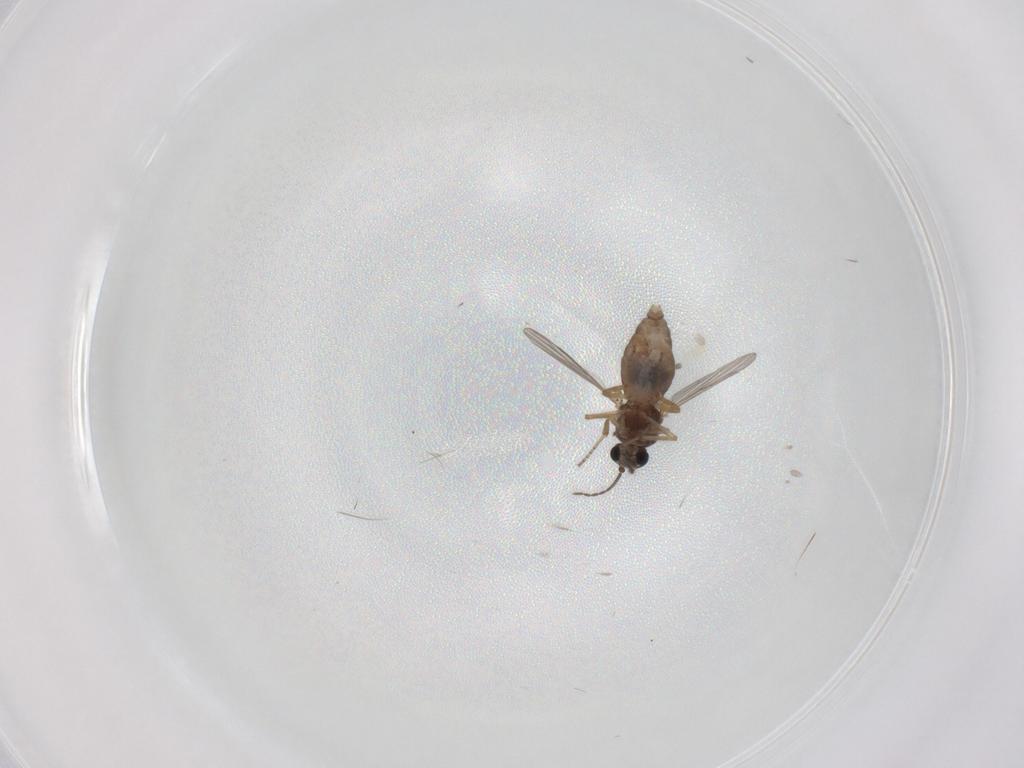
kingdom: Animalia
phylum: Arthropoda
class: Insecta
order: Diptera
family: Ceratopogonidae
